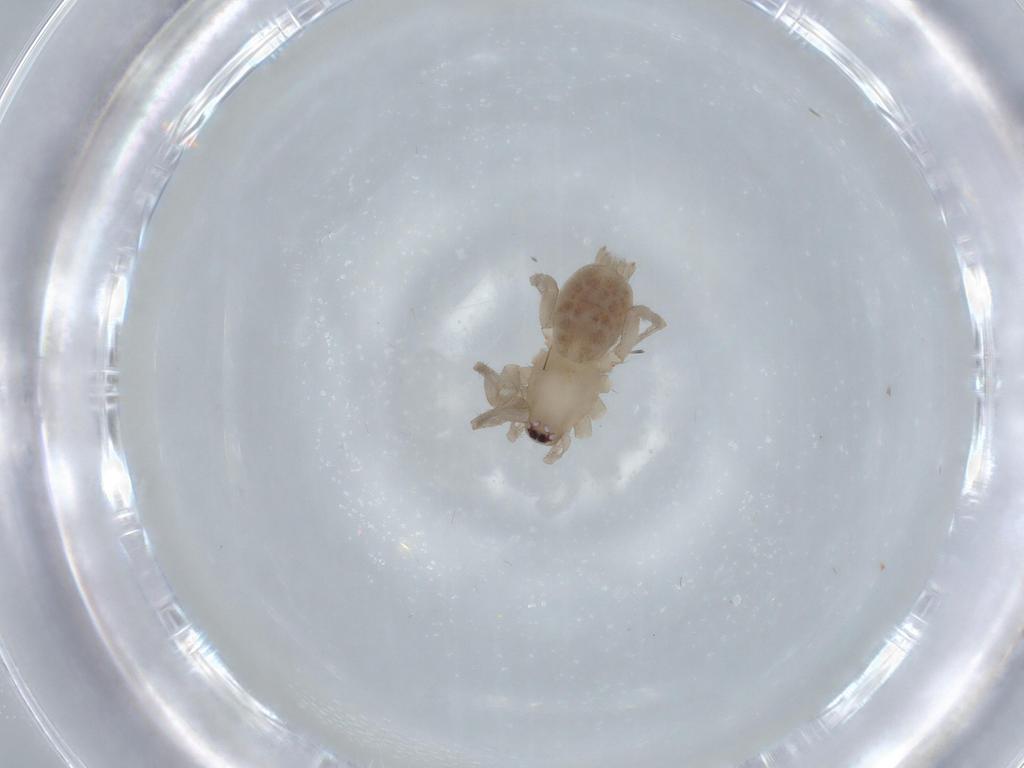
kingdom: Animalia
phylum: Arthropoda
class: Arachnida
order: Araneae
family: Gnaphosidae
